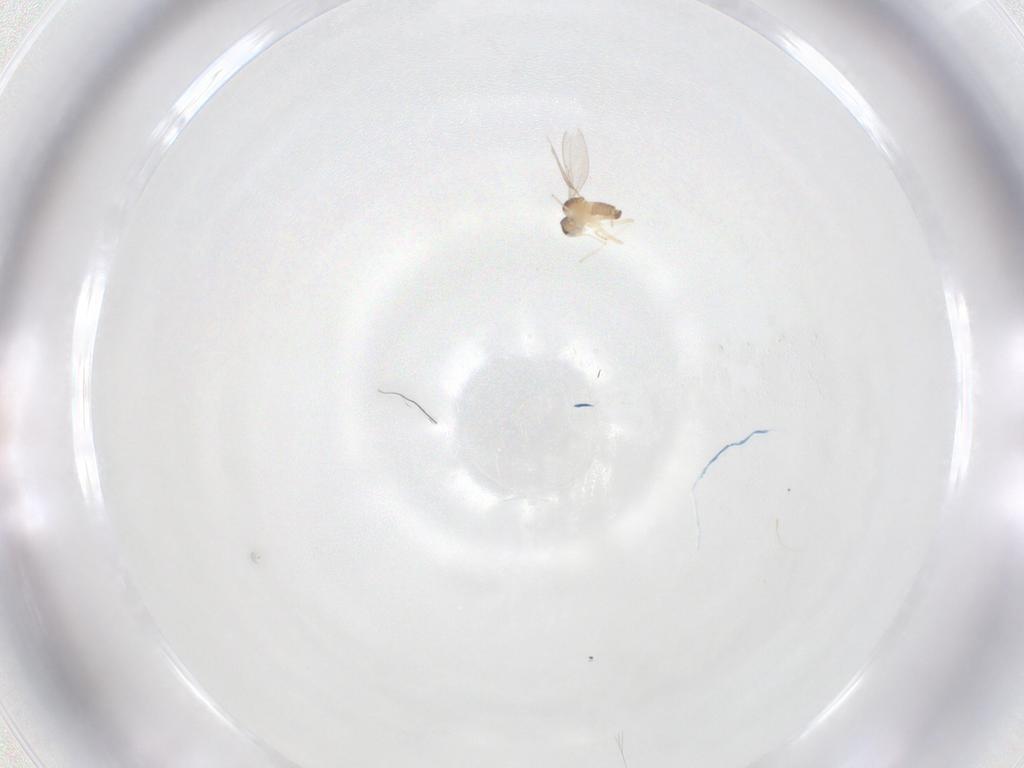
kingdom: Animalia
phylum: Arthropoda
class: Insecta
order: Diptera
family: Cecidomyiidae
